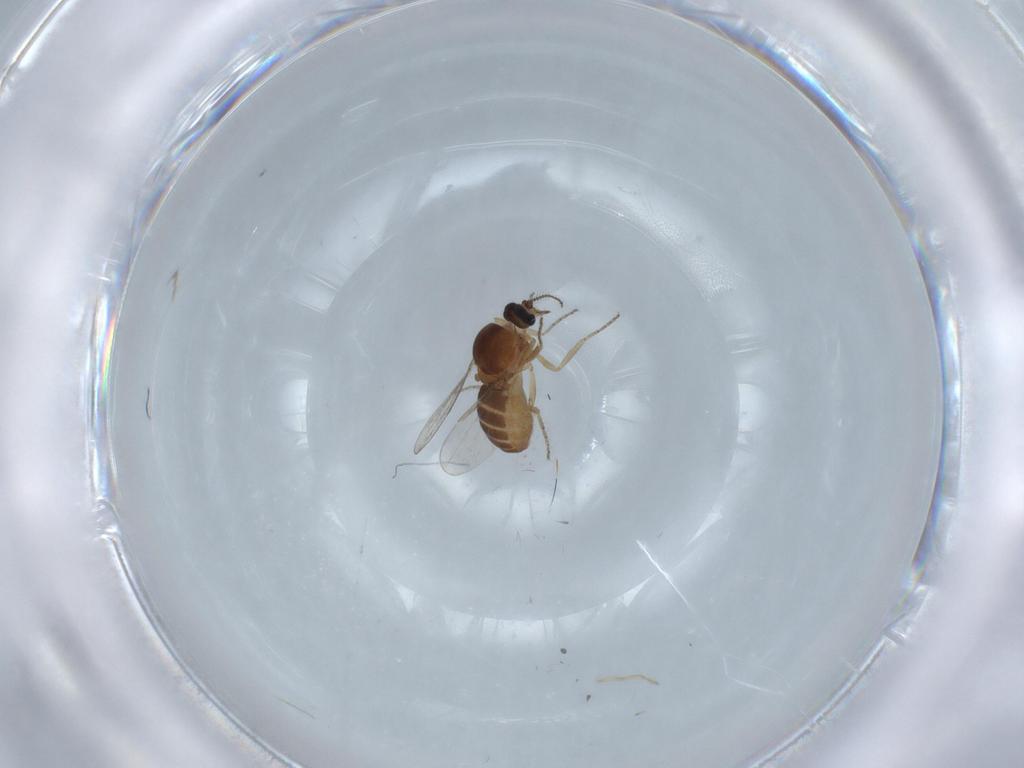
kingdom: Animalia
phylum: Arthropoda
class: Insecta
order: Diptera
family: Ceratopogonidae
